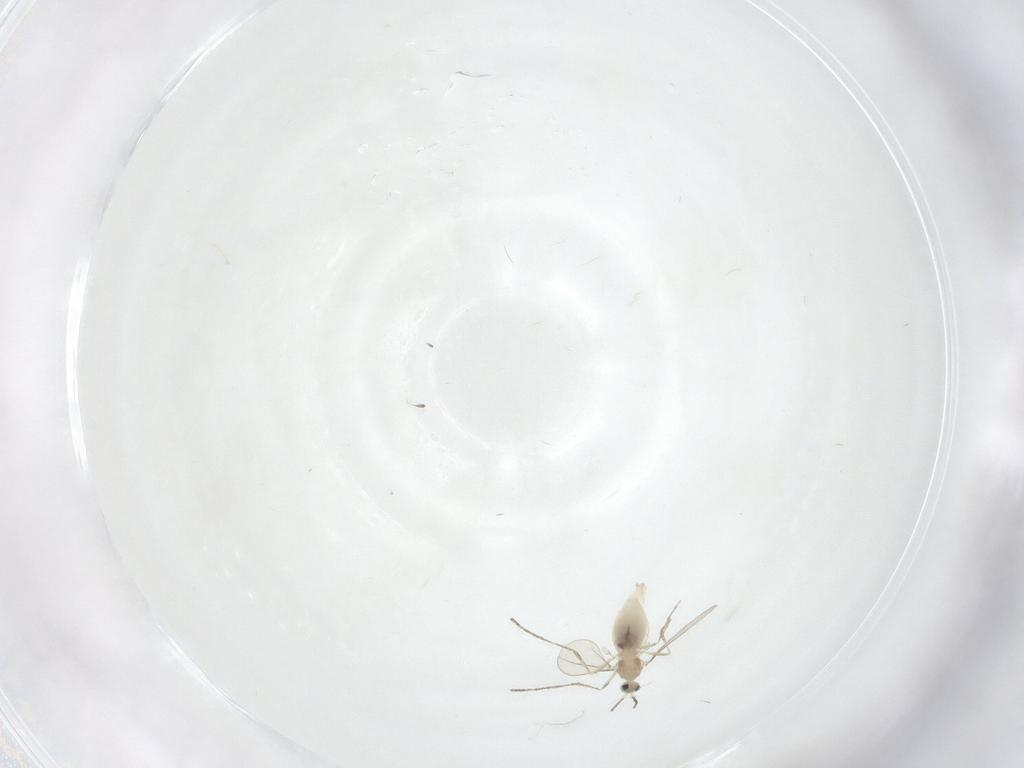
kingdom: Animalia
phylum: Arthropoda
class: Insecta
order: Diptera
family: Cecidomyiidae
